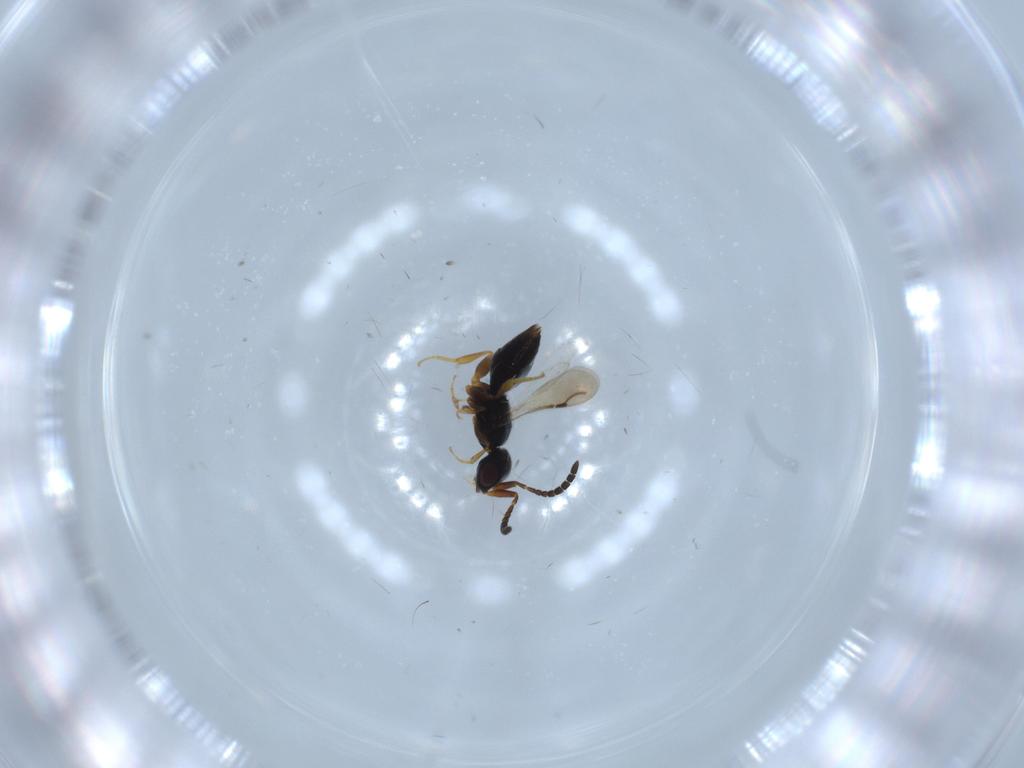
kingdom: Animalia
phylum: Arthropoda
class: Insecta
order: Hymenoptera
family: Ceraphronidae
